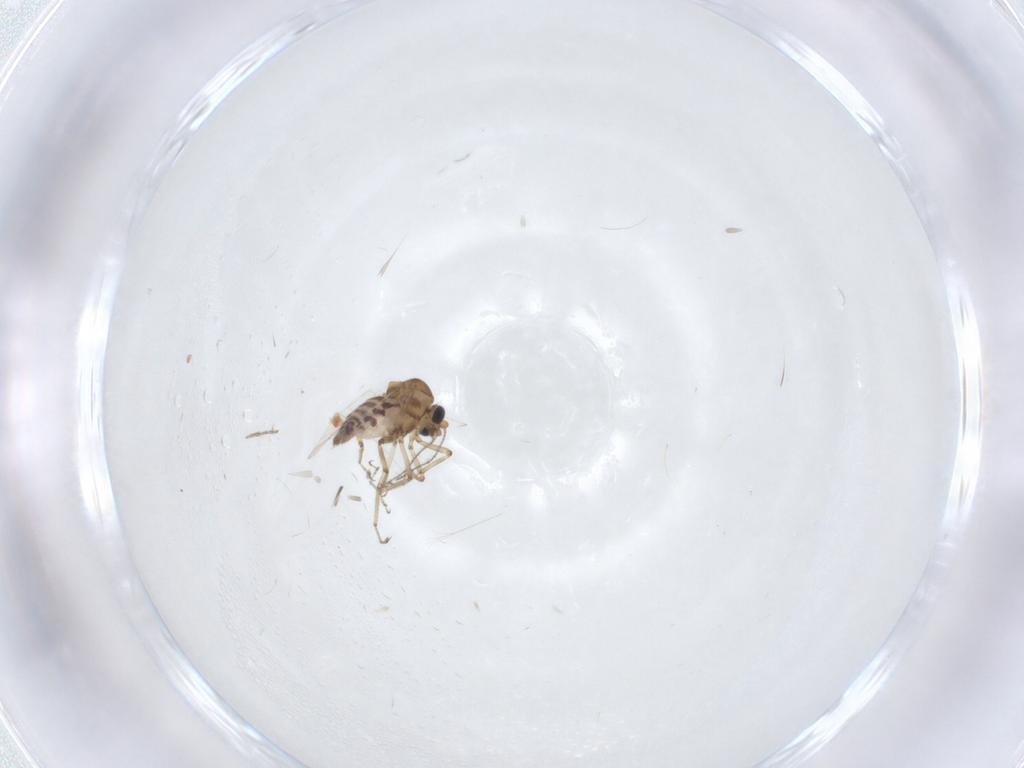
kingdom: Animalia
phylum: Arthropoda
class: Insecta
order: Diptera
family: Ceratopogonidae
